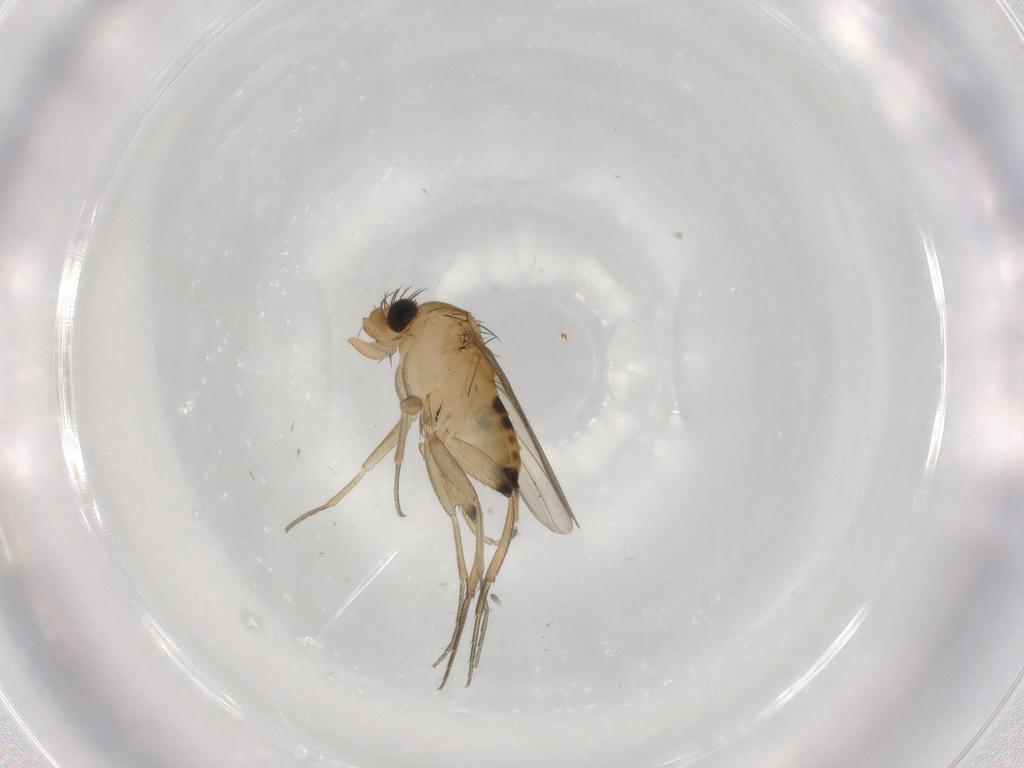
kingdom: Animalia
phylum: Arthropoda
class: Insecta
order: Diptera
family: Phoridae
